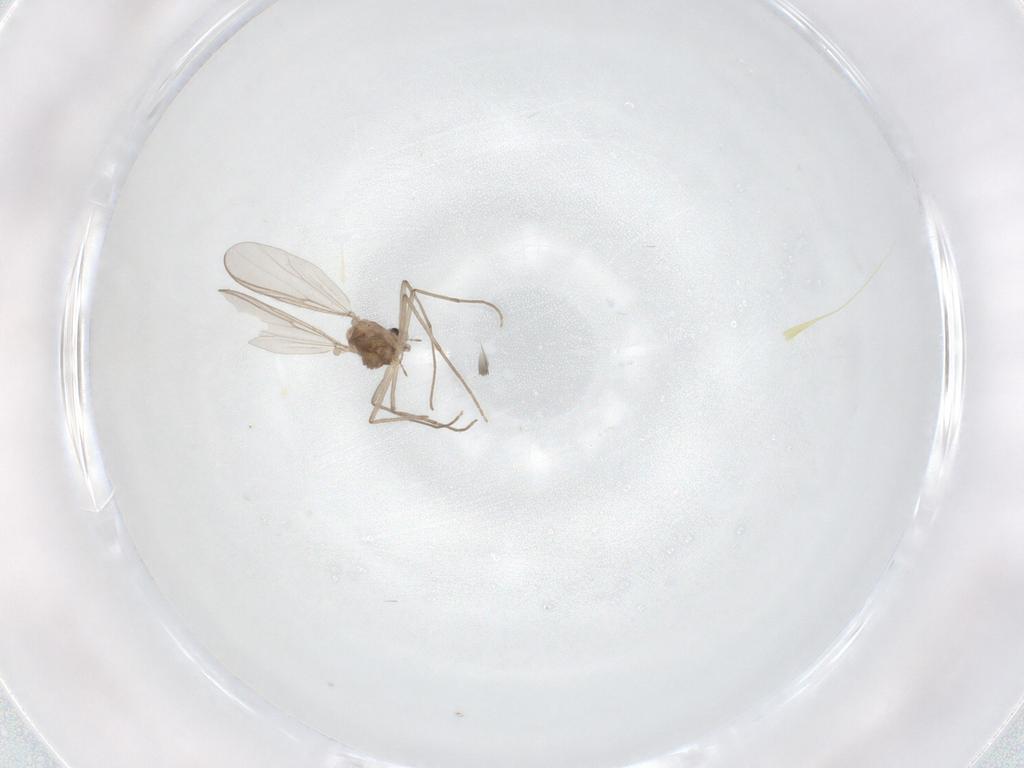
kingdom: Animalia
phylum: Arthropoda
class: Insecta
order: Diptera
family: Chironomidae
